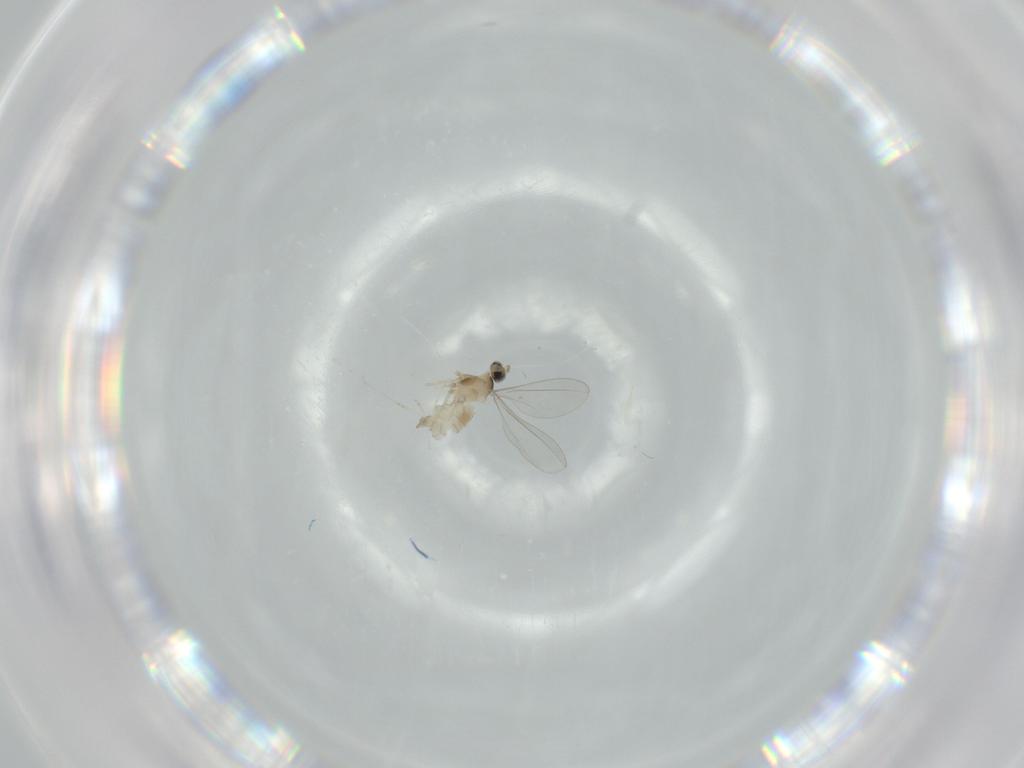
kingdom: Animalia
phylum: Arthropoda
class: Insecta
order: Diptera
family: Cecidomyiidae
